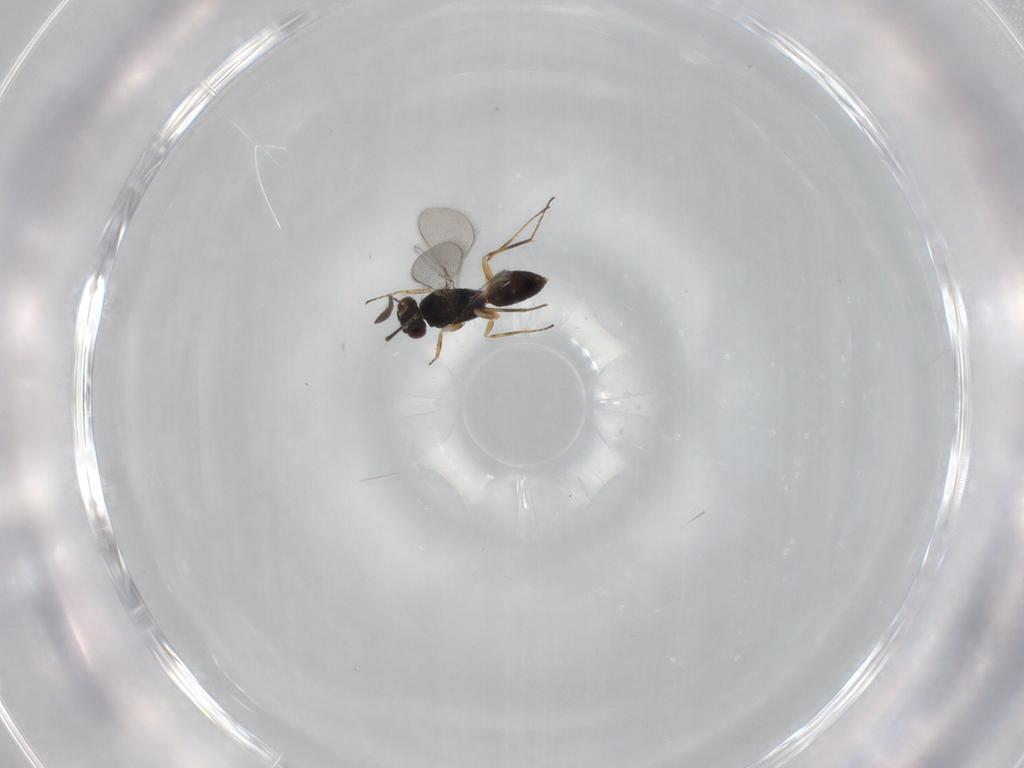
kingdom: Animalia
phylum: Arthropoda
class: Insecta
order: Hymenoptera
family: Mymaridae
